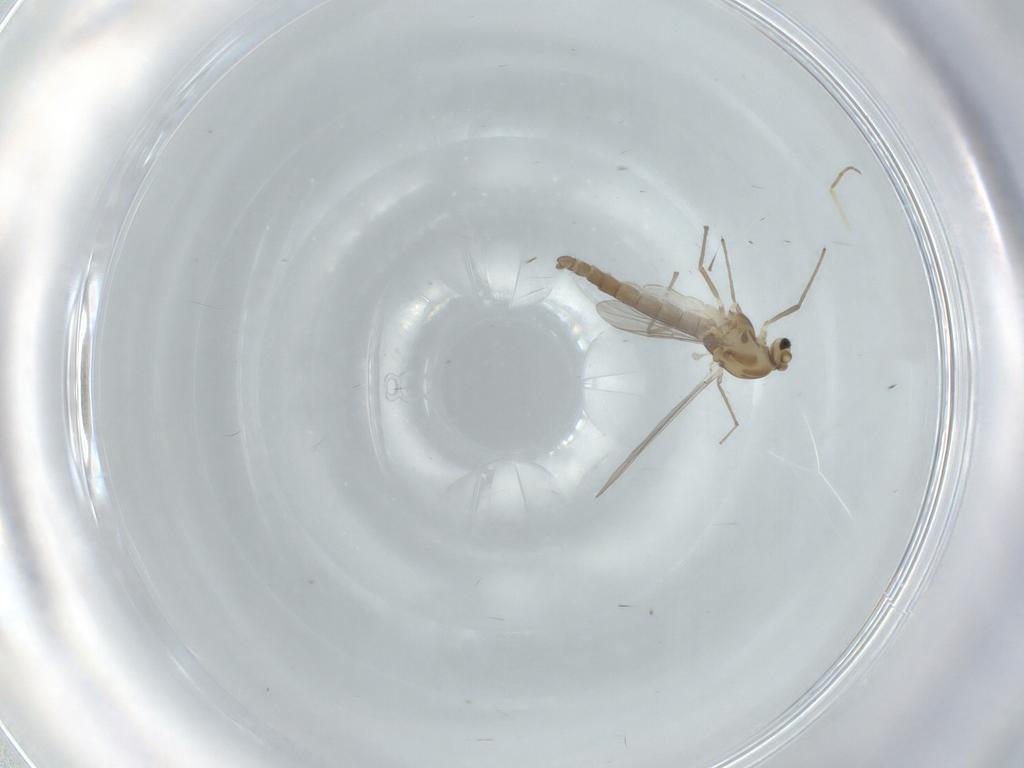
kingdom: Animalia
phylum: Arthropoda
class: Insecta
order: Diptera
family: Chironomidae
